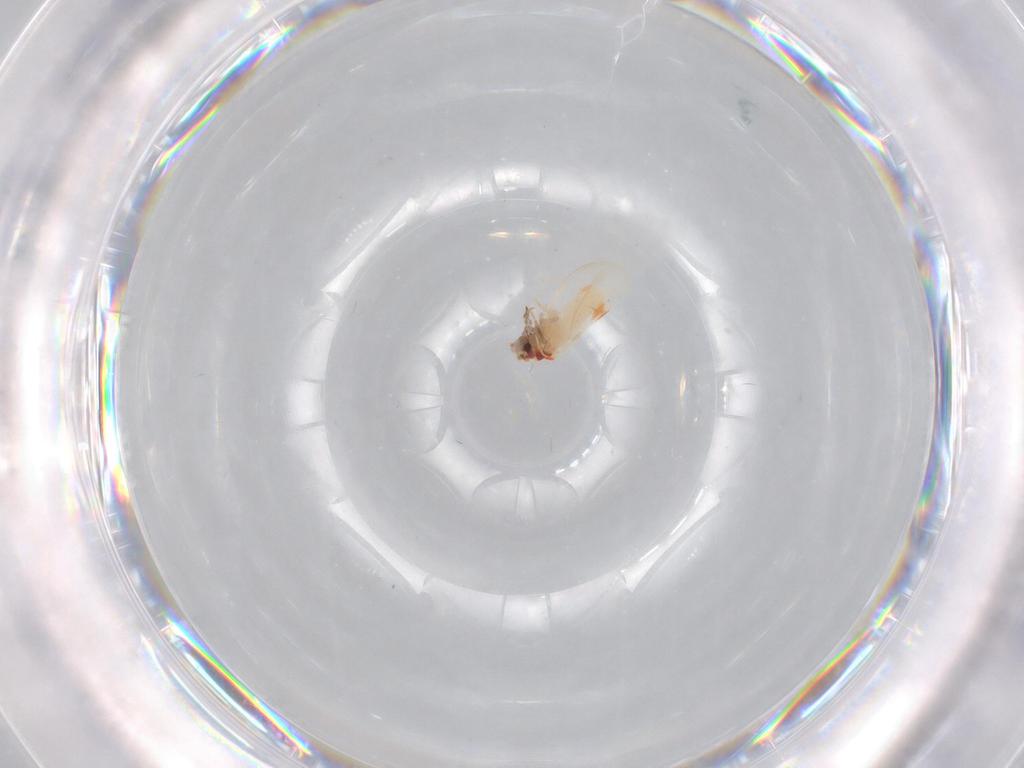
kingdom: Animalia
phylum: Arthropoda
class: Insecta
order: Hemiptera
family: Aleyrodidae
